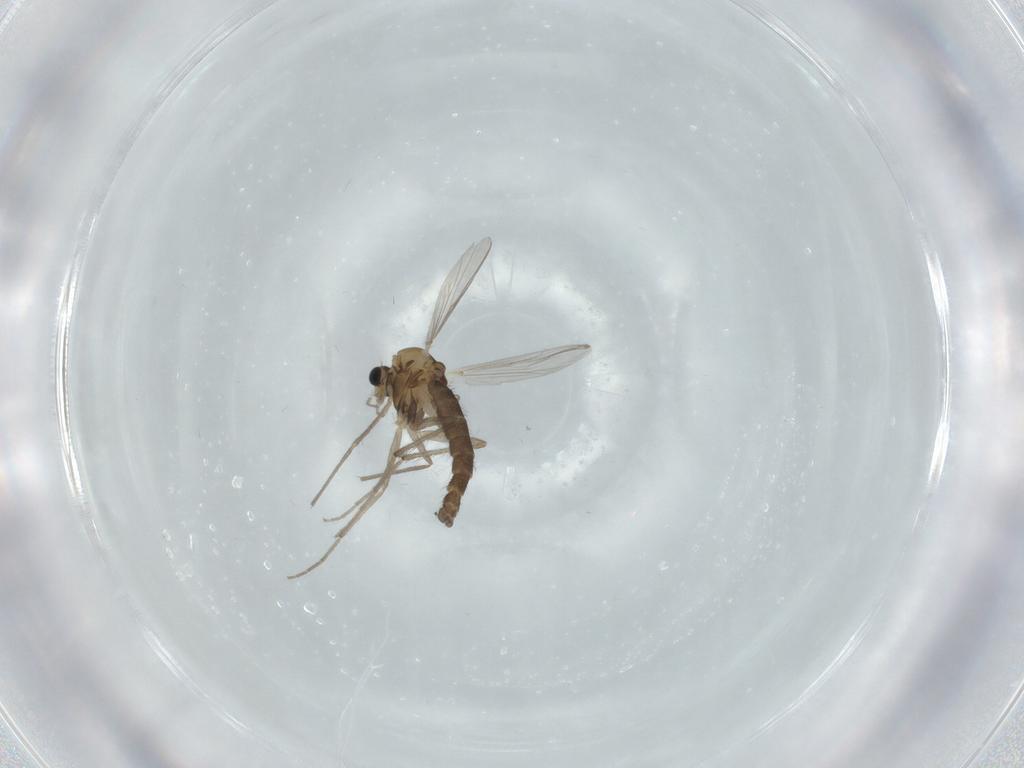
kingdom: Animalia
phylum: Arthropoda
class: Insecta
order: Diptera
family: Chironomidae
